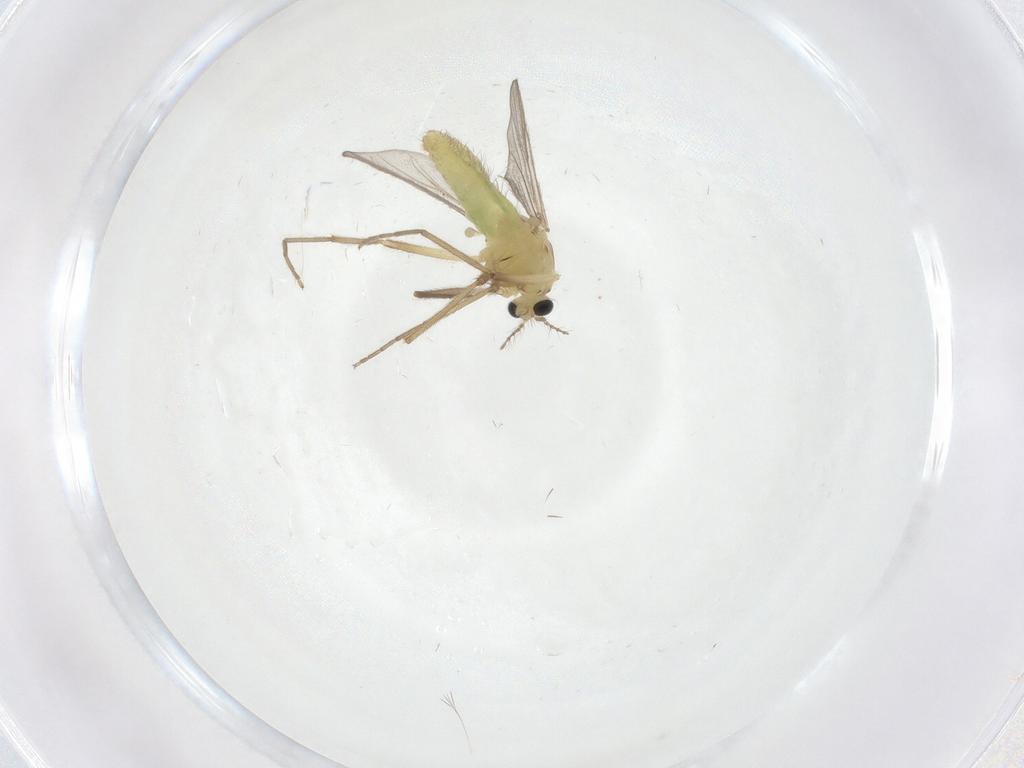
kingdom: Animalia
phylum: Arthropoda
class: Insecta
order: Diptera
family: Chironomidae
